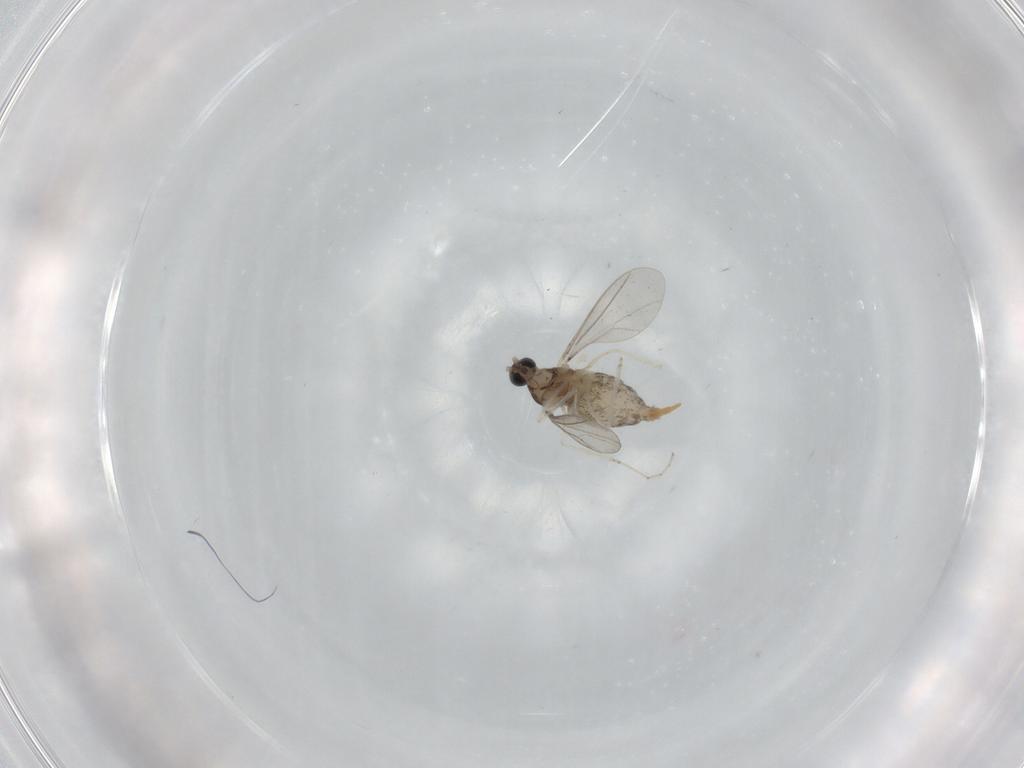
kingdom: Animalia
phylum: Arthropoda
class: Insecta
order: Diptera
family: Cecidomyiidae
